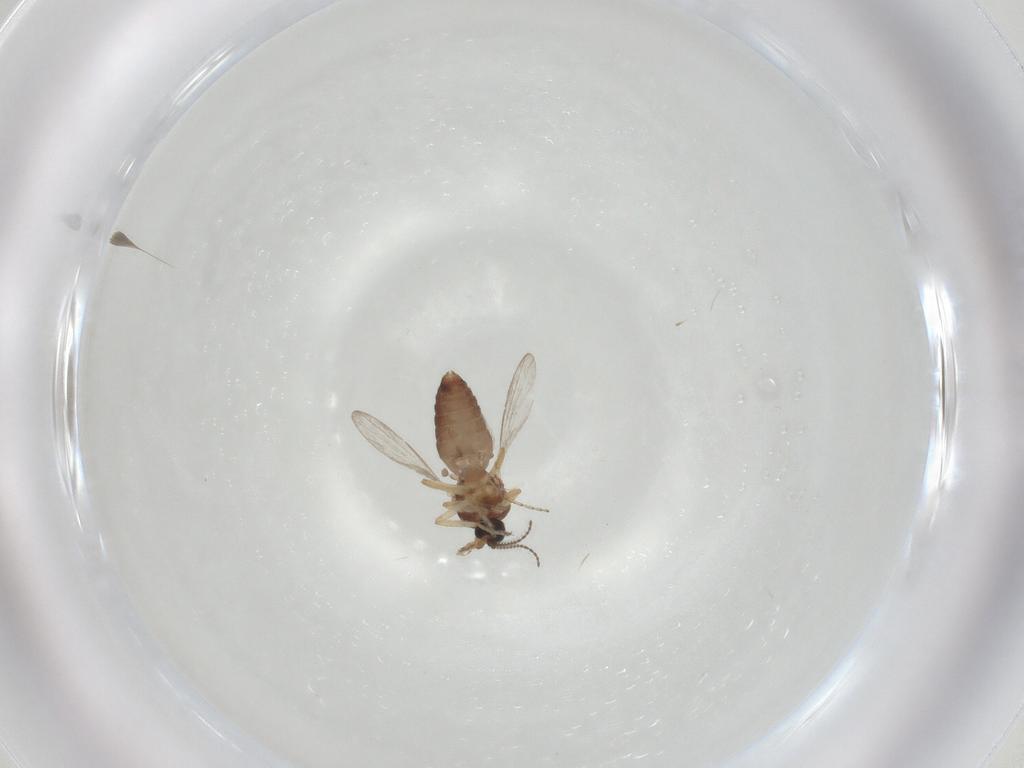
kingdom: Animalia
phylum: Arthropoda
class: Insecta
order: Diptera
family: Ceratopogonidae
